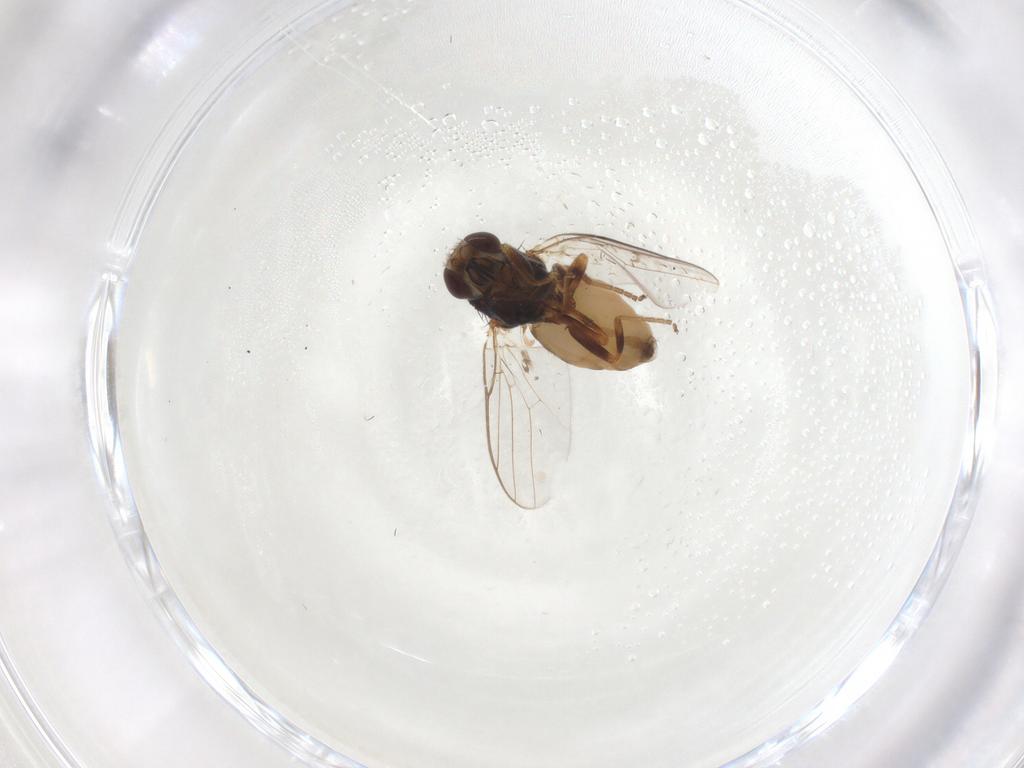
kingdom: Animalia
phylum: Arthropoda
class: Insecta
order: Diptera
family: Chloropidae
